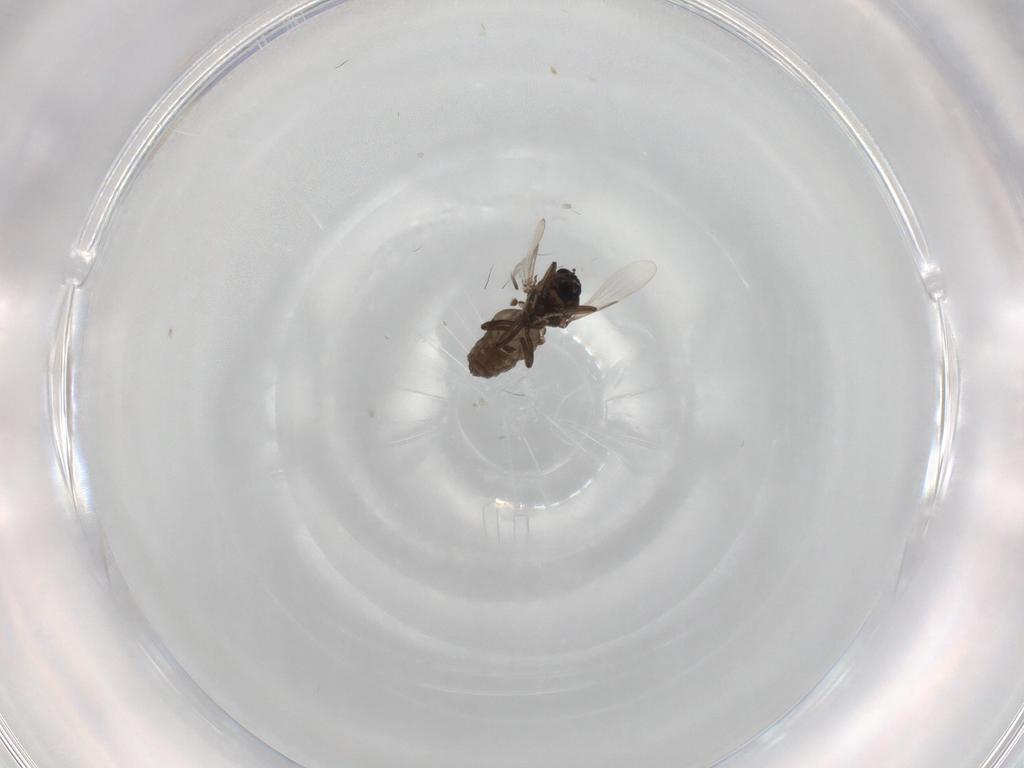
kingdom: Animalia
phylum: Arthropoda
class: Insecta
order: Diptera
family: Ceratopogonidae
